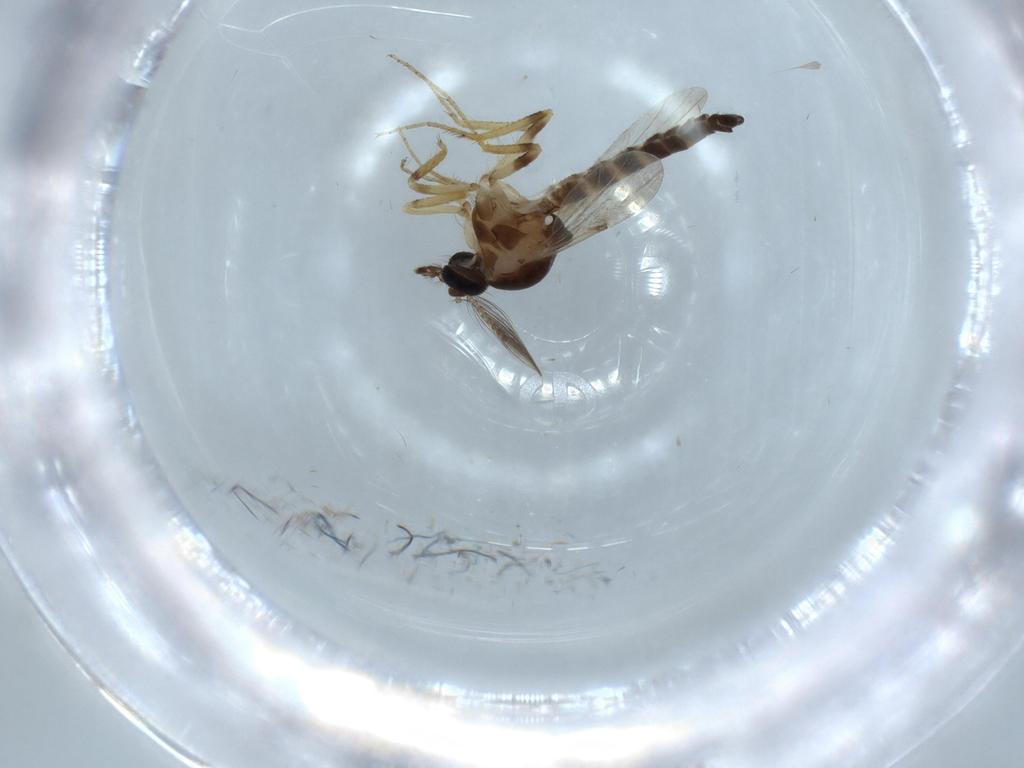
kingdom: Animalia
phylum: Arthropoda
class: Insecta
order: Diptera
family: Ceratopogonidae
